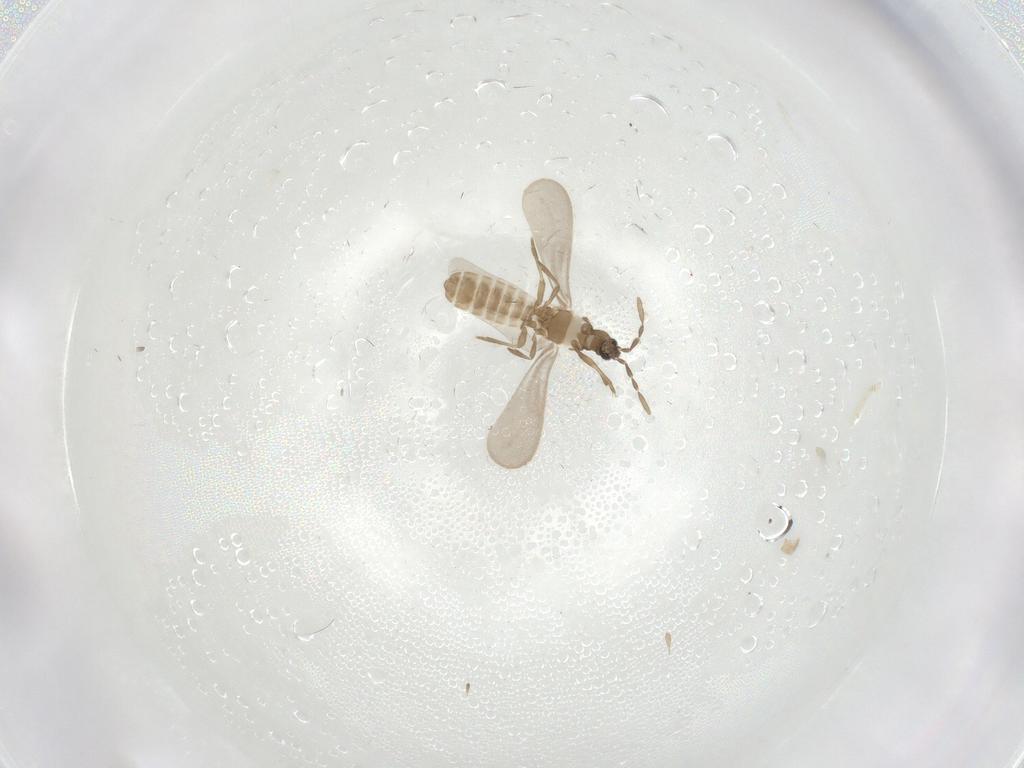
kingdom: Animalia
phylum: Arthropoda
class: Insecta
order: Hemiptera
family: Enicocephalidae
